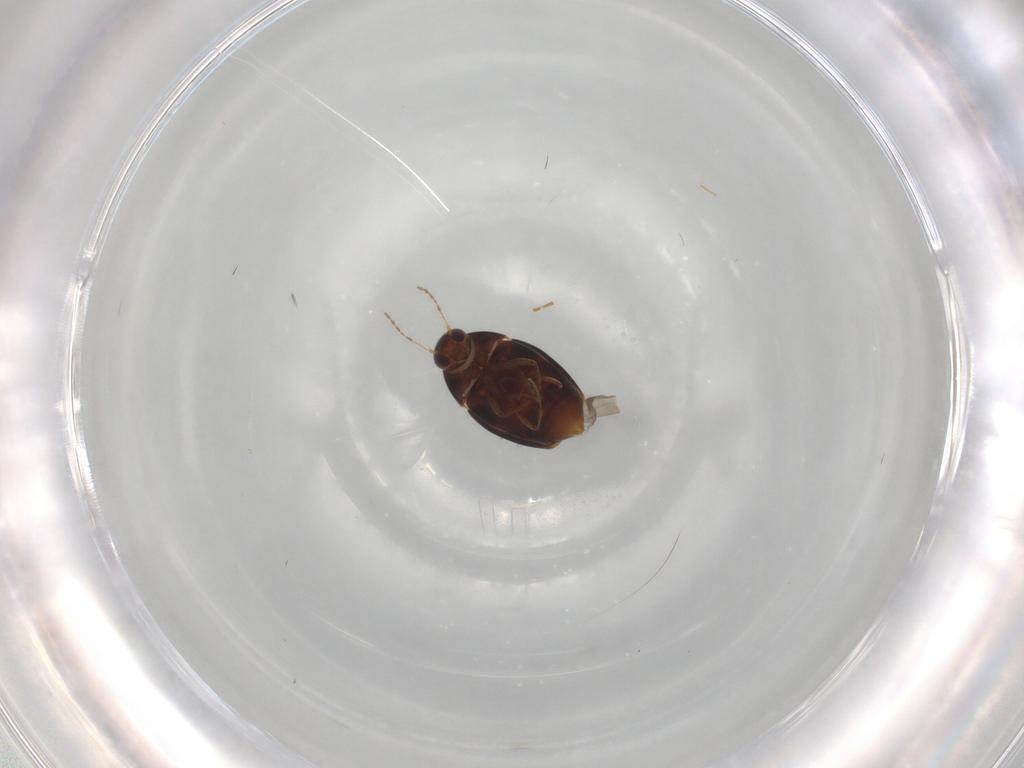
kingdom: Animalia
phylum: Arthropoda
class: Insecta
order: Coleoptera
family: Staphylinidae
